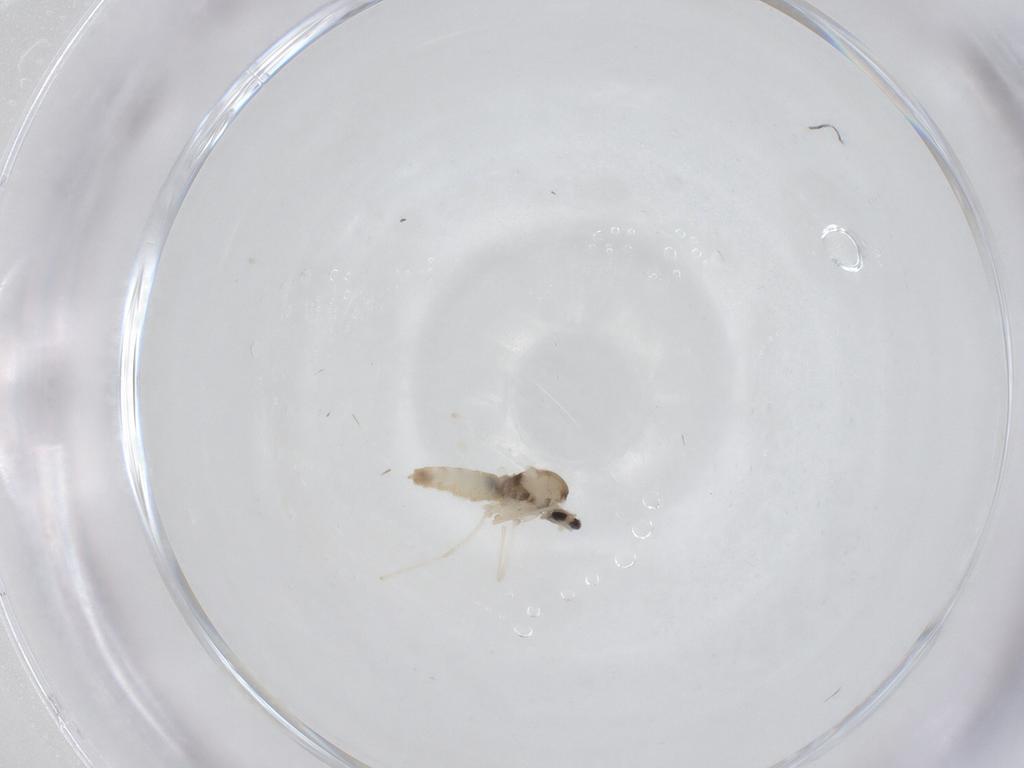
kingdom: Animalia
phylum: Arthropoda
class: Insecta
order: Diptera
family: Cecidomyiidae
